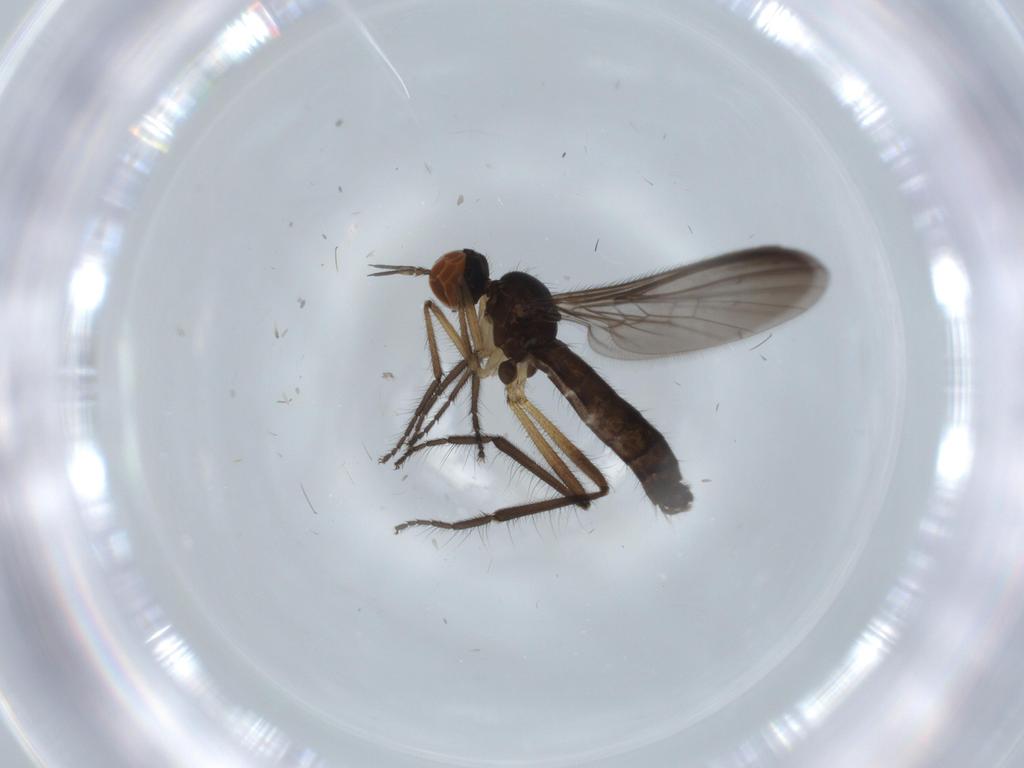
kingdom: Animalia
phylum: Arthropoda
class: Insecta
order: Diptera
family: Empididae
